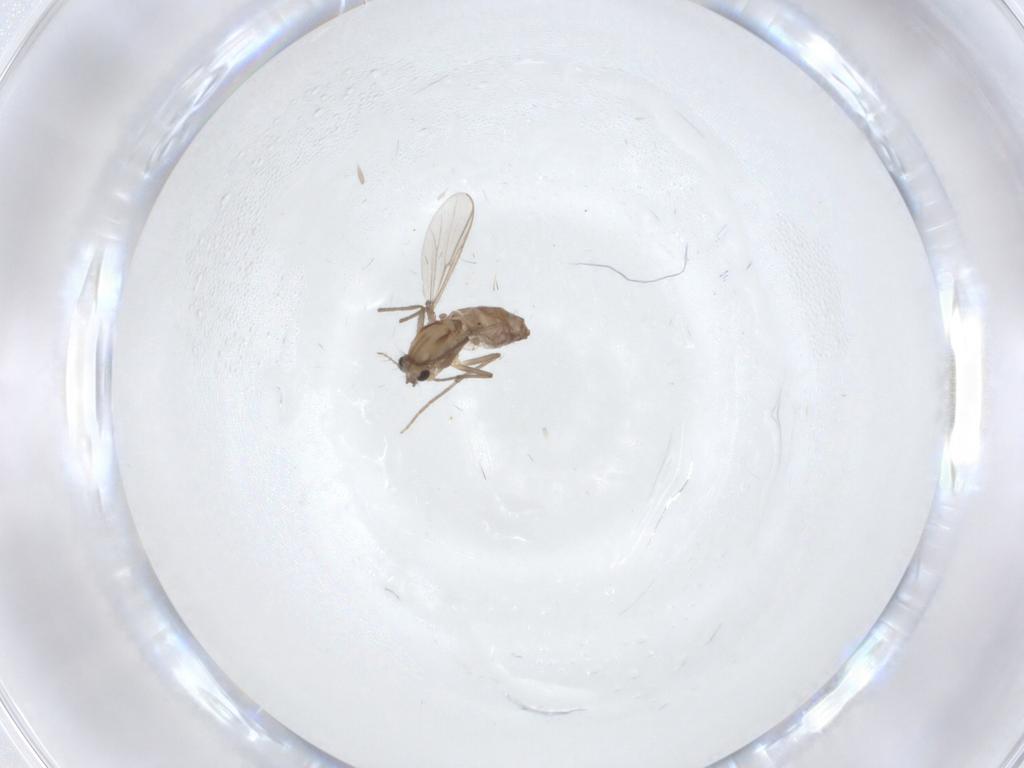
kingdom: Animalia
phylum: Arthropoda
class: Insecta
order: Diptera
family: Chironomidae
